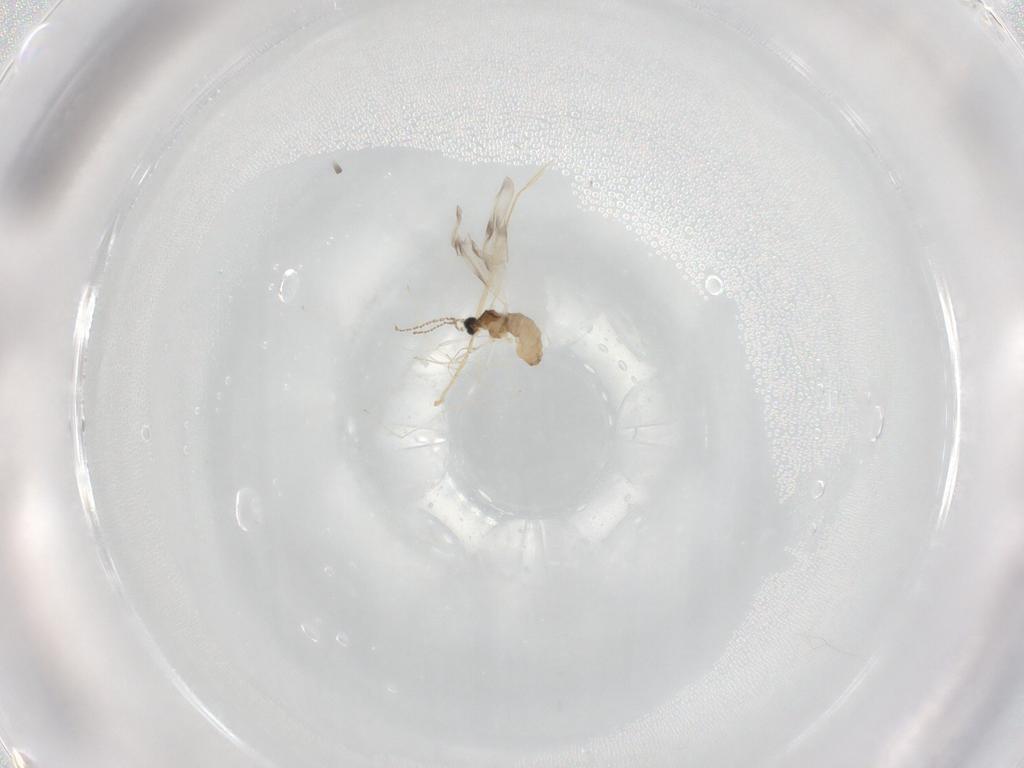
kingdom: Animalia
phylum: Arthropoda
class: Insecta
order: Diptera
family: Cecidomyiidae
